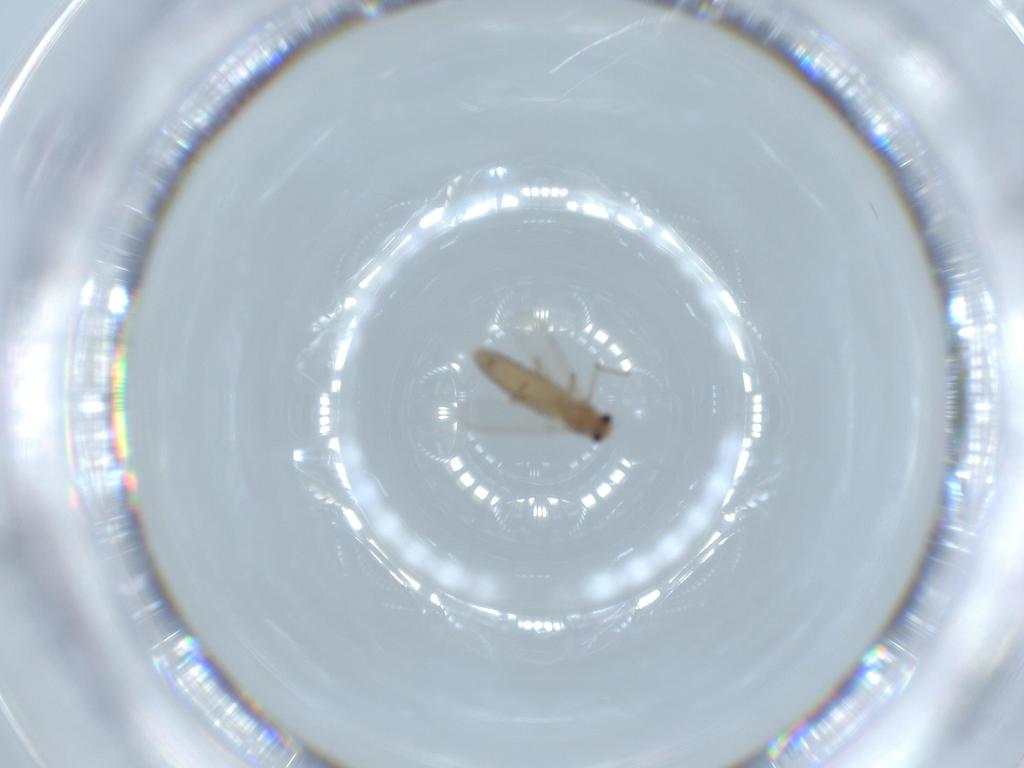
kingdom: Animalia
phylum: Arthropoda
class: Insecta
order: Diptera
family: Chironomidae
